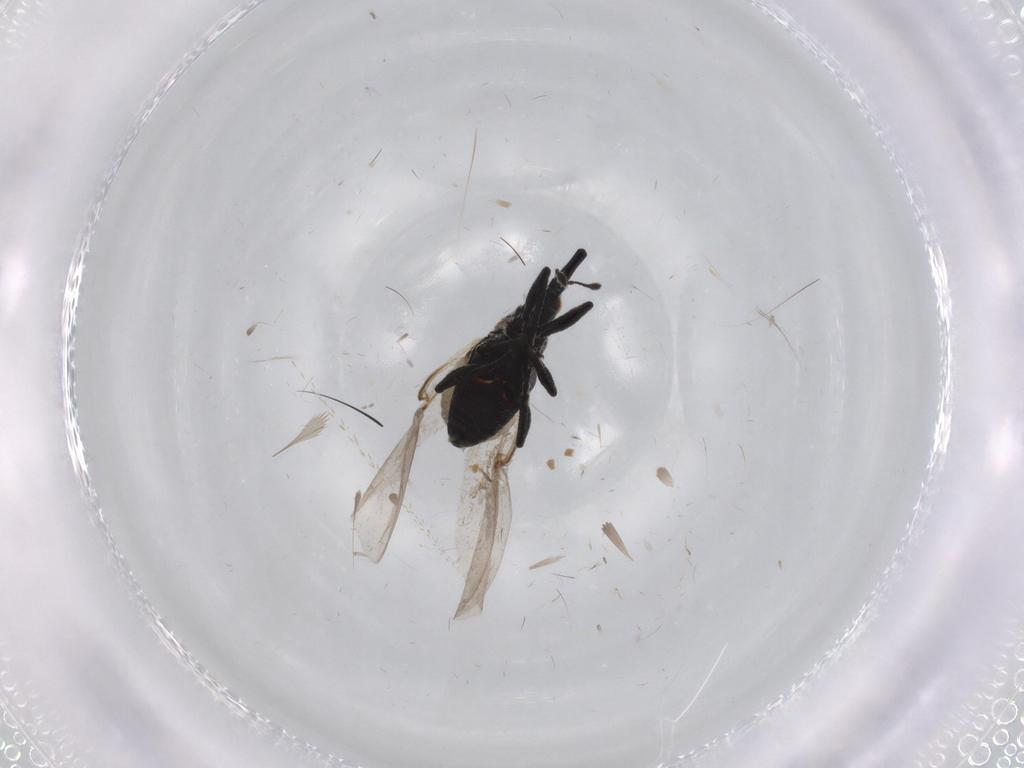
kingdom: Animalia
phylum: Arthropoda
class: Insecta
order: Coleoptera
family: Brentidae
